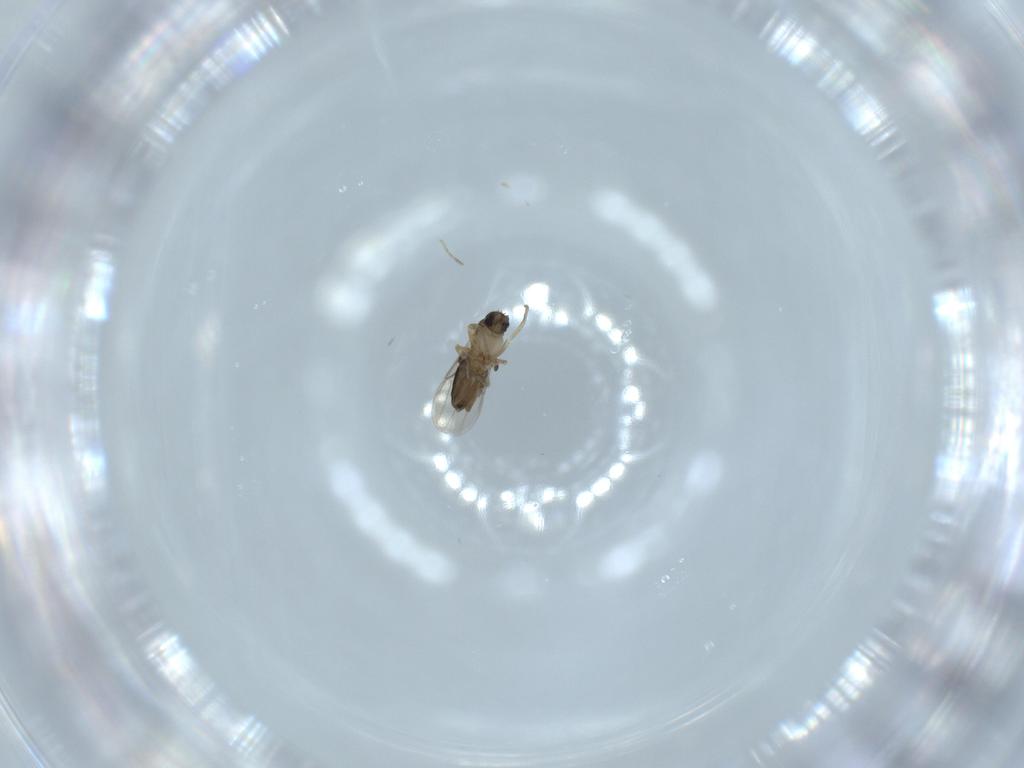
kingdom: Animalia
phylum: Arthropoda
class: Insecta
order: Diptera
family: Phoridae
